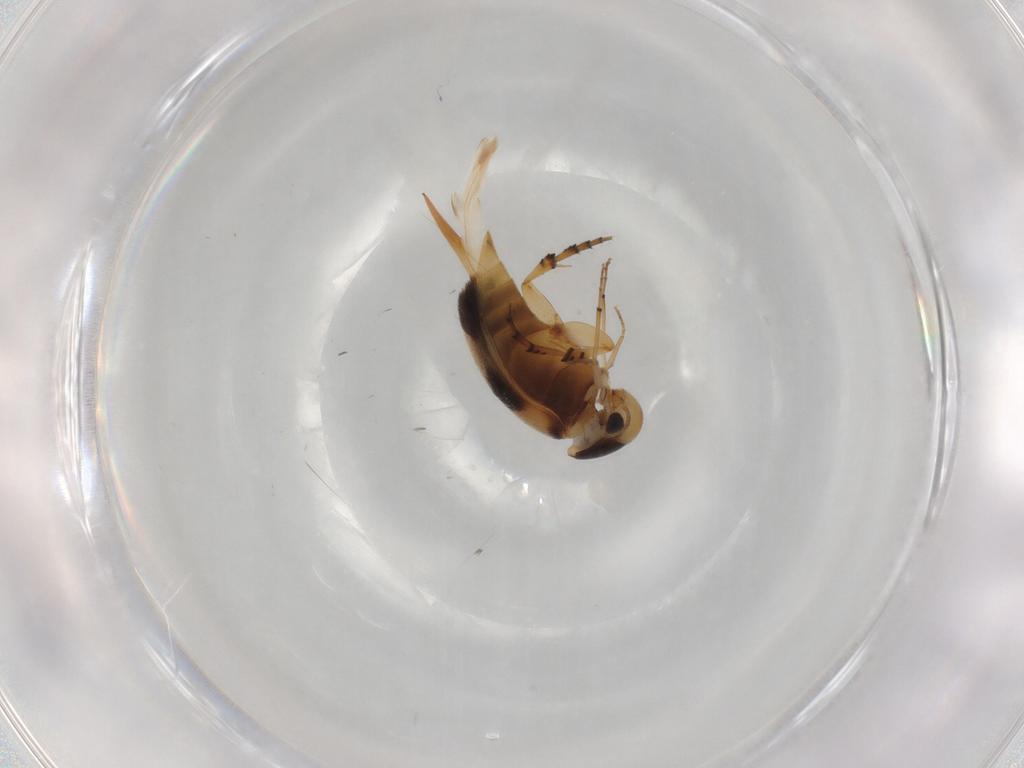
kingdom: Animalia
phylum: Arthropoda
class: Insecta
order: Coleoptera
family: Mordellidae
